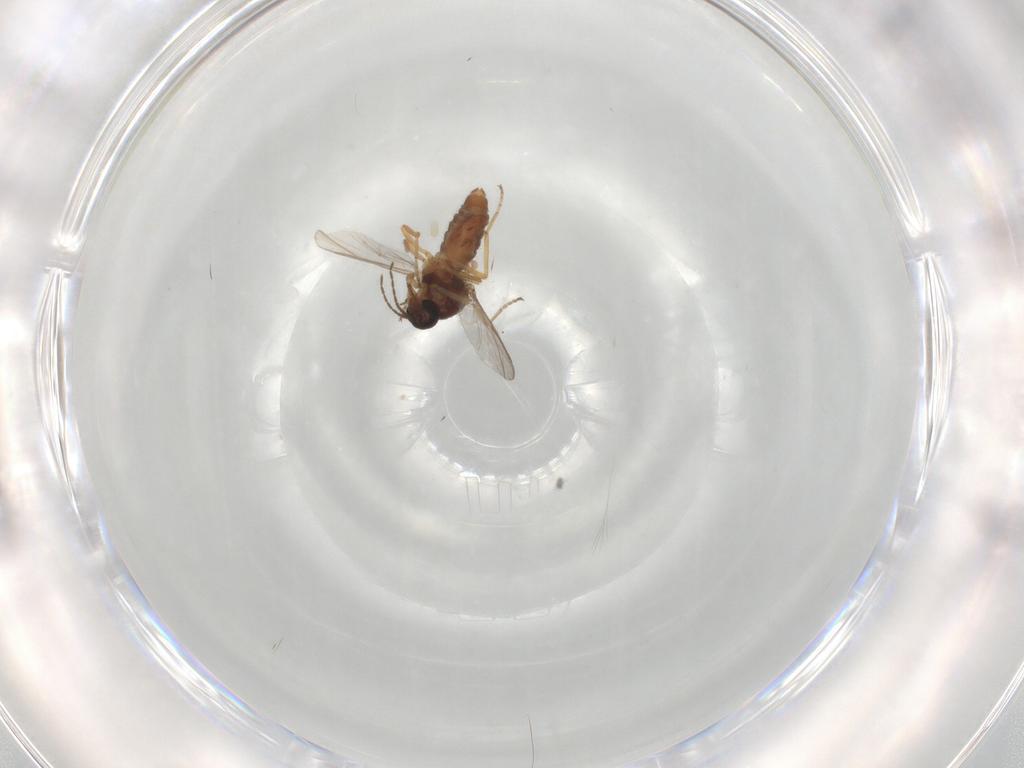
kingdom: Animalia
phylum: Arthropoda
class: Insecta
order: Diptera
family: Ceratopogonidae
